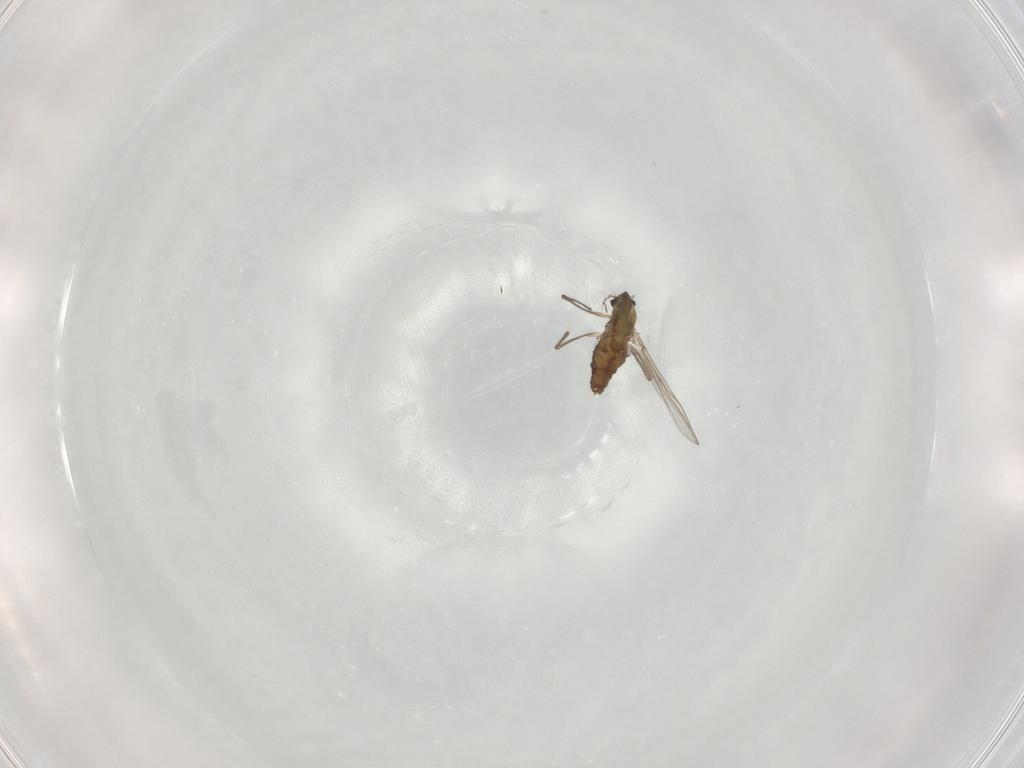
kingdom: Animalia
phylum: Arthropoda
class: Insecta
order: Diptera
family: Chironomidae
